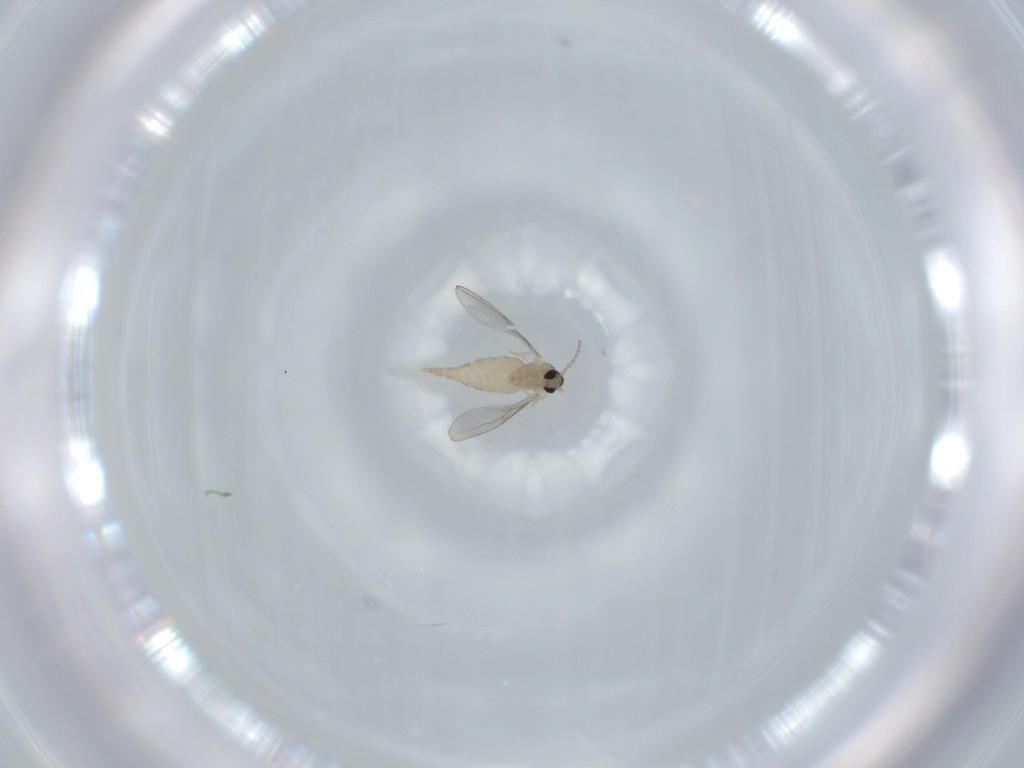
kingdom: Animalia
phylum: Arthropoda
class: Insecta
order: Diptera
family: Cecidomyiidae
